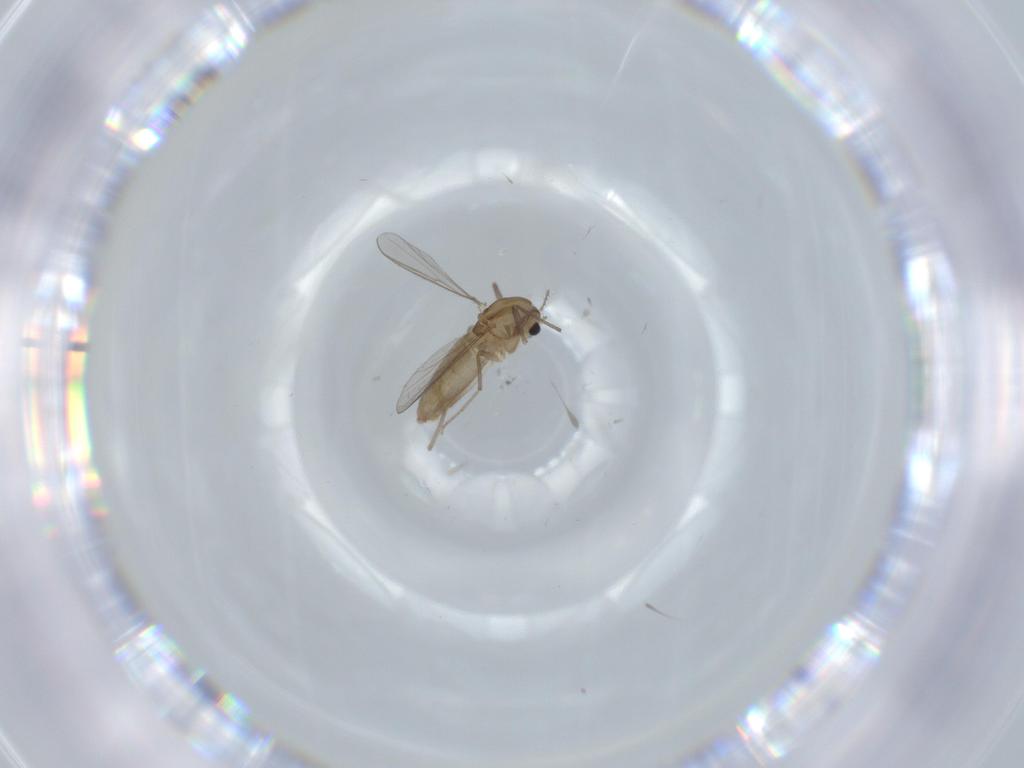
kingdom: Animalia
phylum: Arthropoda
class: Insecta
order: Diptera
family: Chironomidae
